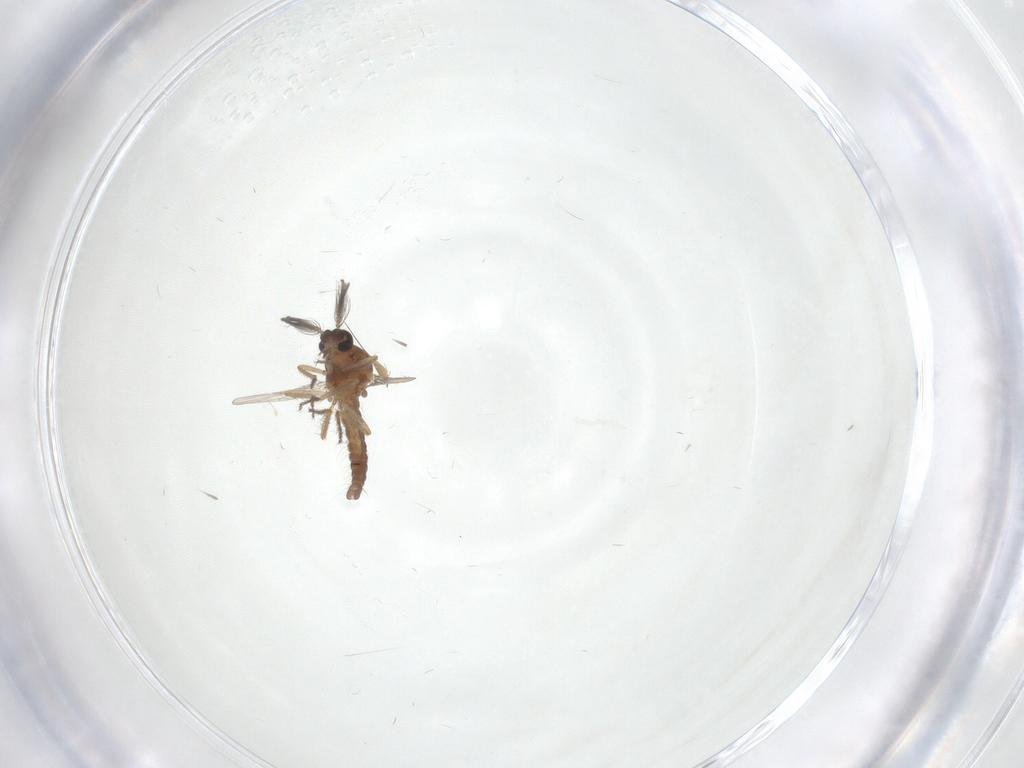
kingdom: Animalia
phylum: Arthropoda
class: Insecta
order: Diptera
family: Ceratopogonidae
